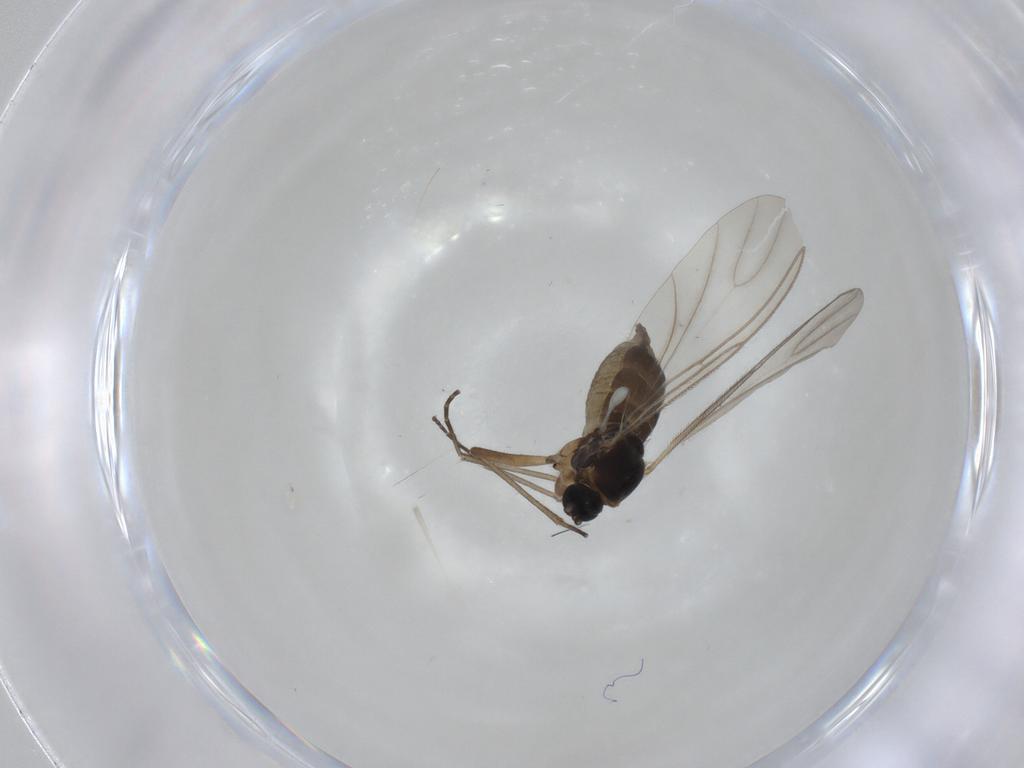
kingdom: Animalia
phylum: Arthropoda
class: Insecta
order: Diptera
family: Sciaridae
